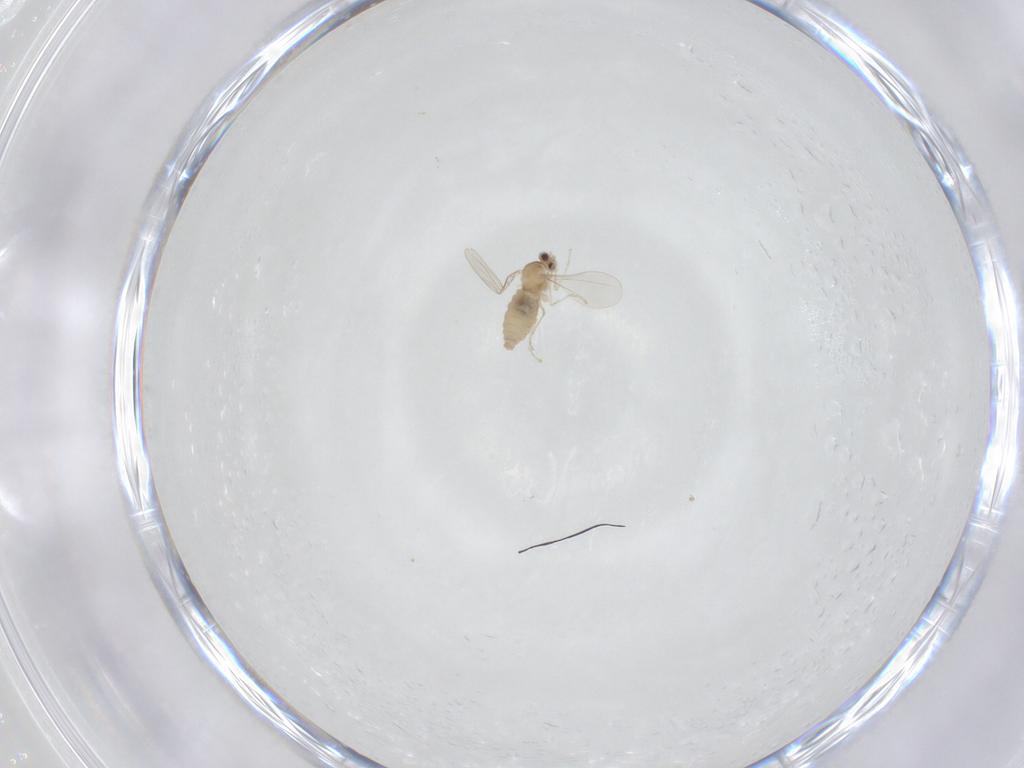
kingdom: Animalia
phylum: Arthropoda
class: Insecta
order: Diptera
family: Cecidomyiidae
